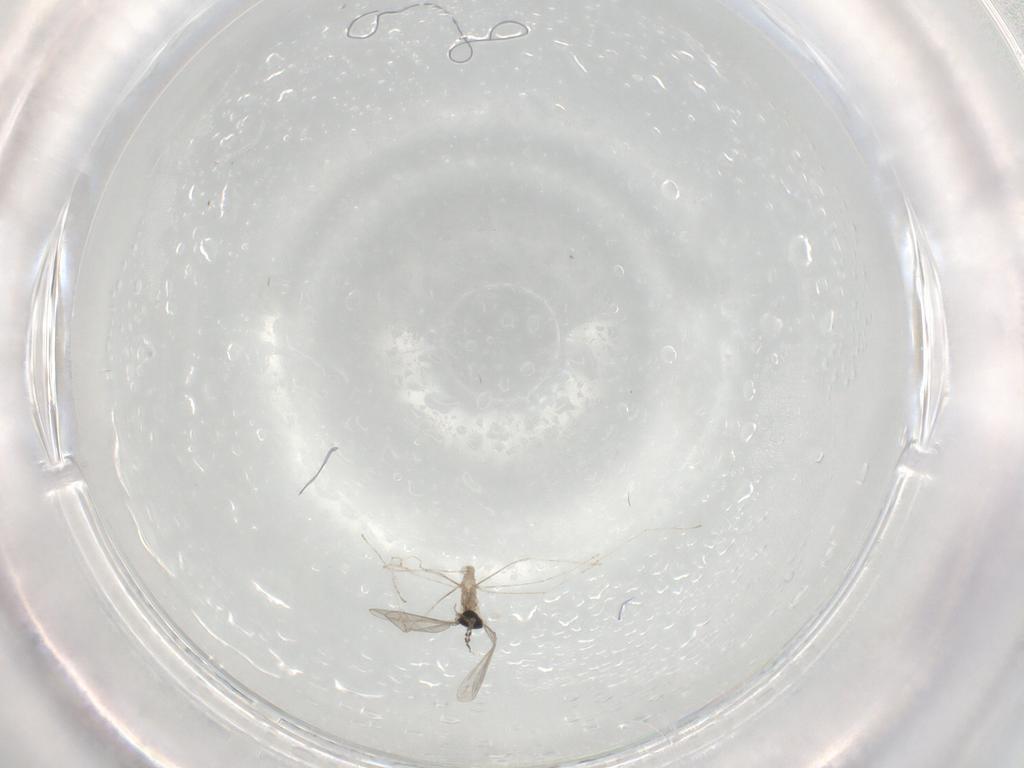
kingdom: Animalia
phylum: Arthropoda
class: Insecta
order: Diptera
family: Cecidomyiidae
